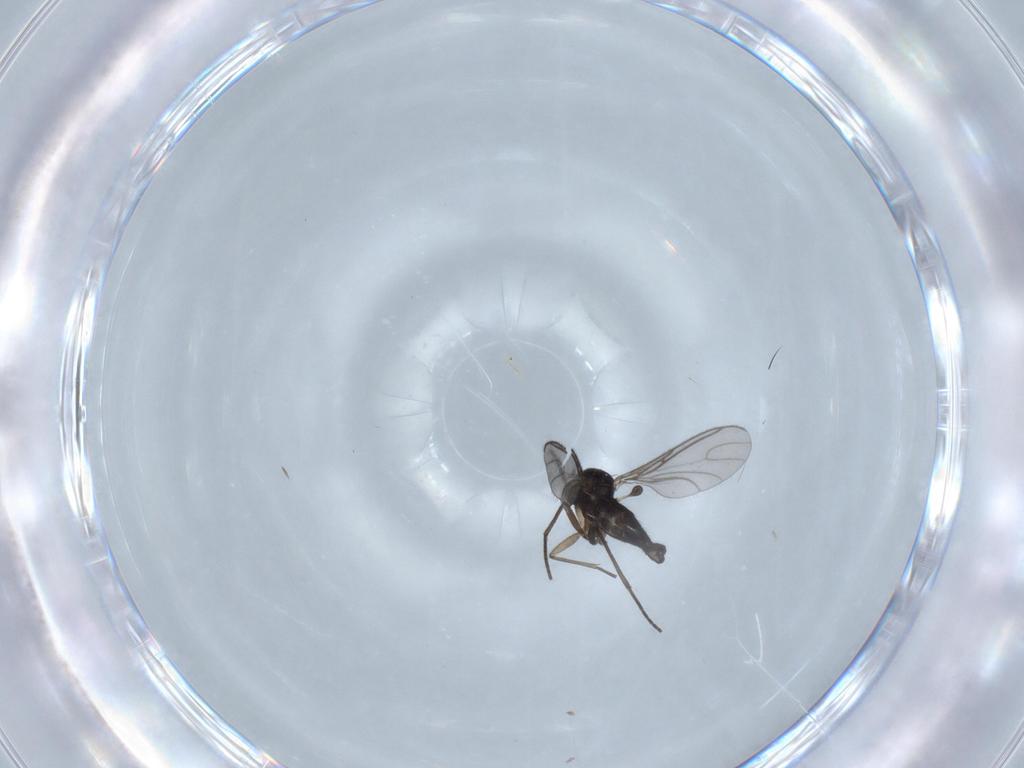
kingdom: Animalia
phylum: Arthropoda
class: Insecta
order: Diptera
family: Sciaridae
